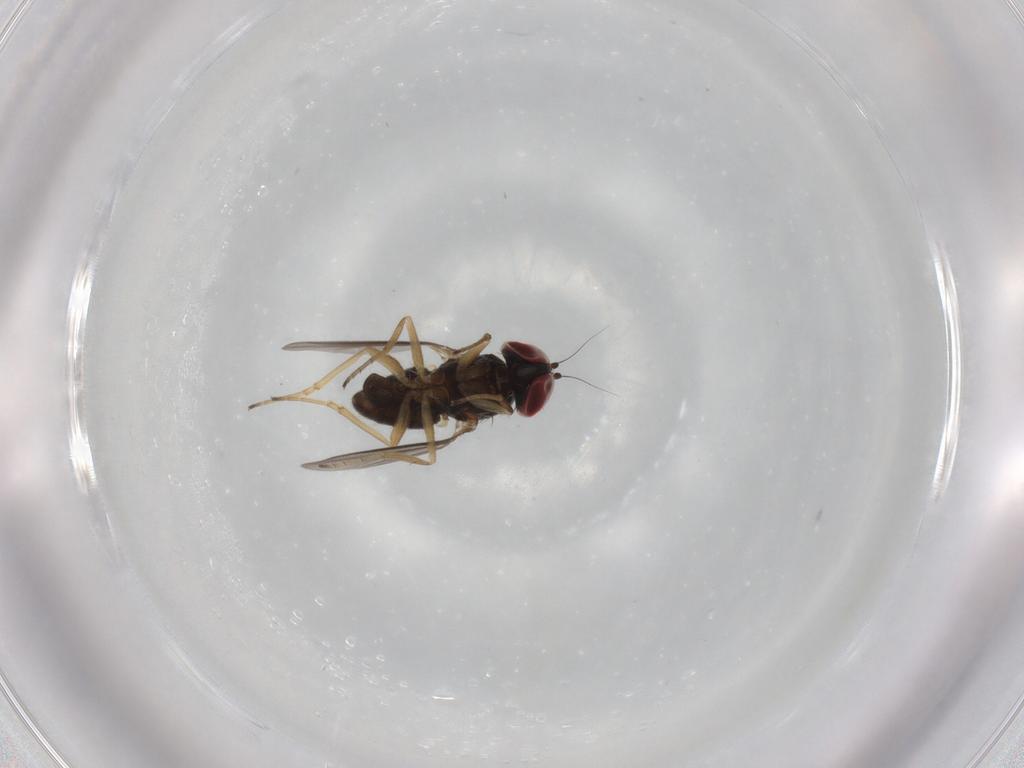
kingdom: Animalia
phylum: Arthropoda
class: Insecta
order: Diptera
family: Dolichopodidae
